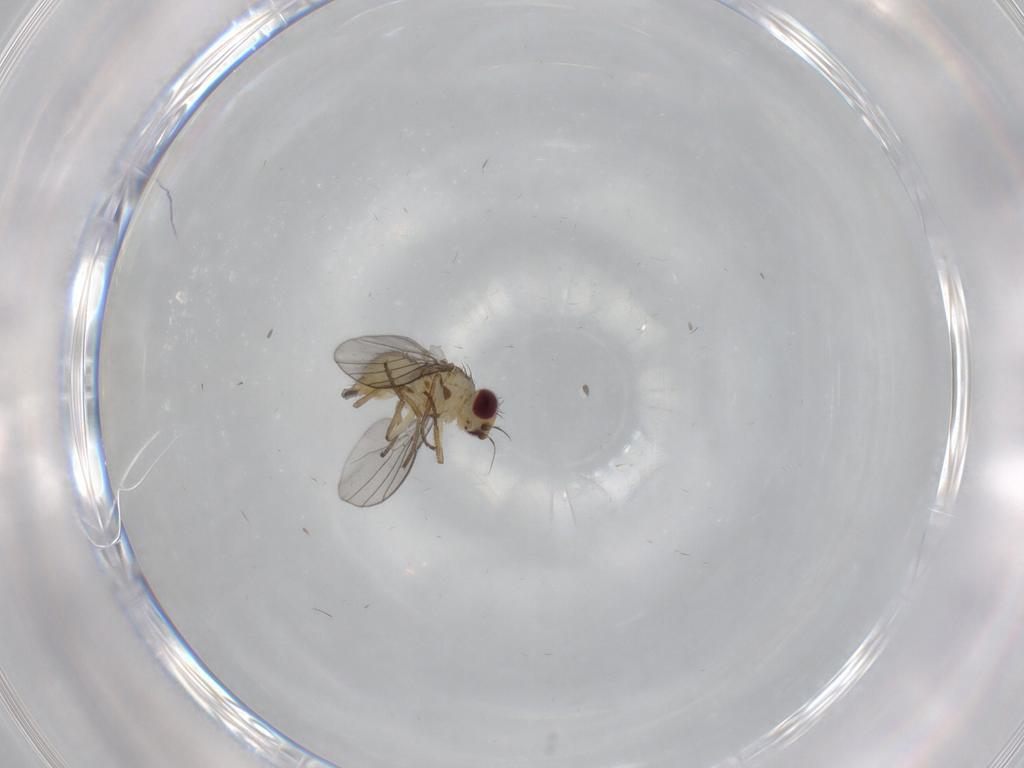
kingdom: Animalia
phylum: Arthropoda
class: Insecta
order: Diptera
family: Agromyzidae
